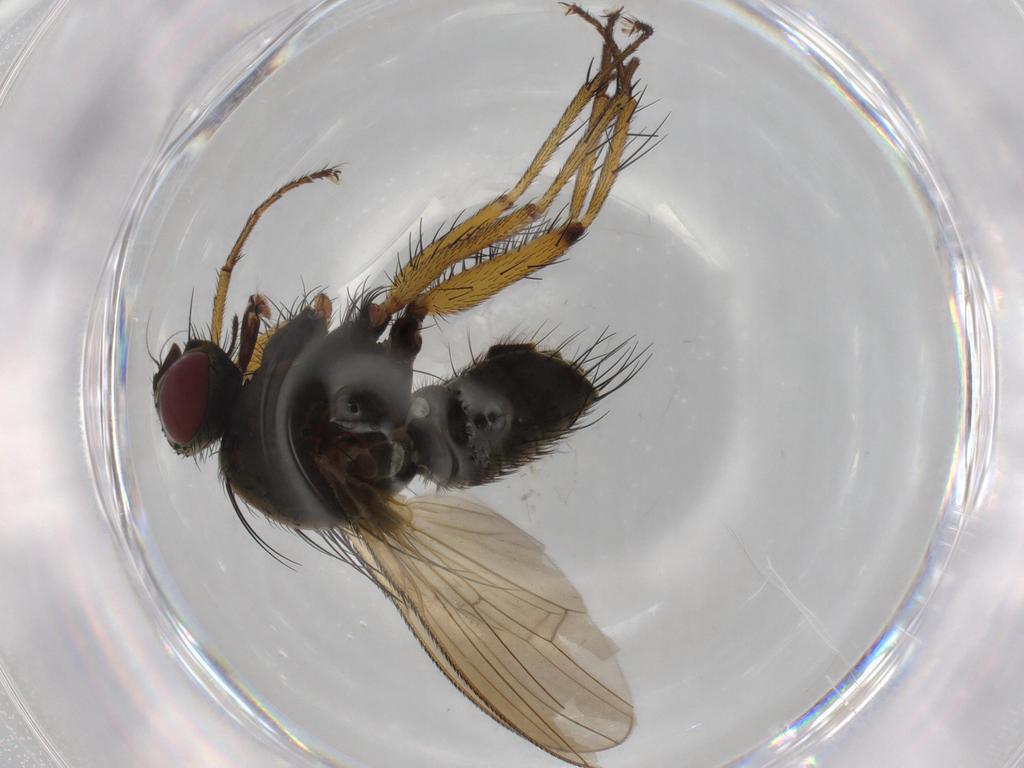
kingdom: Animalia
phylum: Arthropoda
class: Insecta
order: Diptera
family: Muscidae
